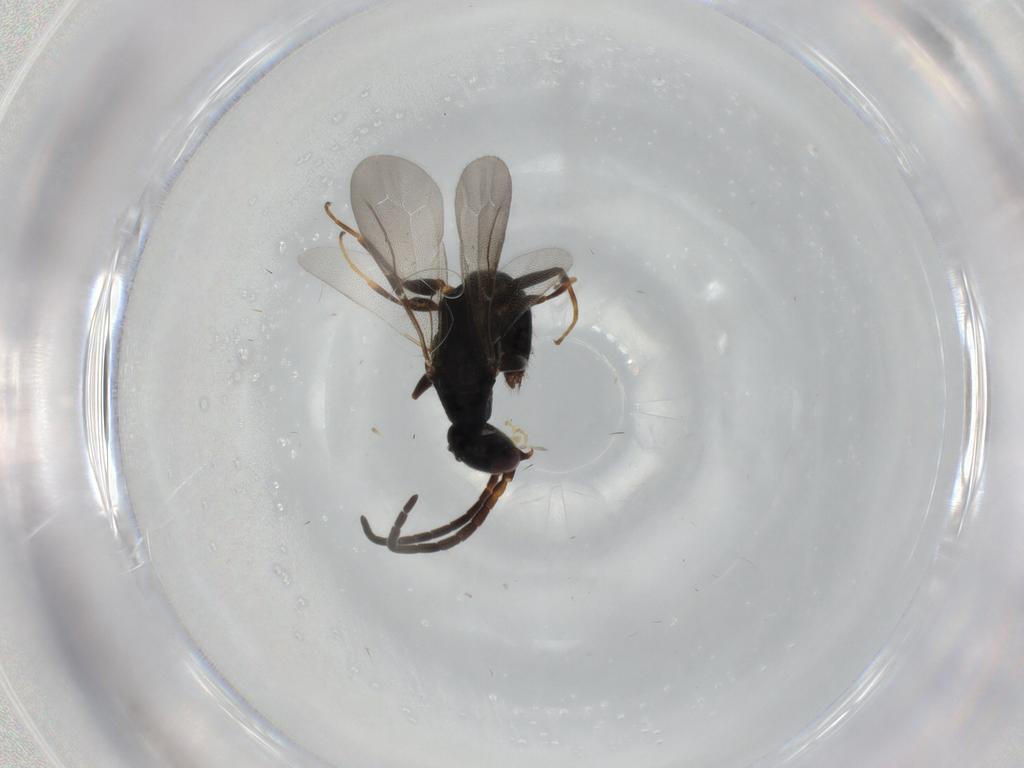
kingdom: Animalia
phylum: Arthropoda
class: Insecta
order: Hymenoptera
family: Bethylidae
